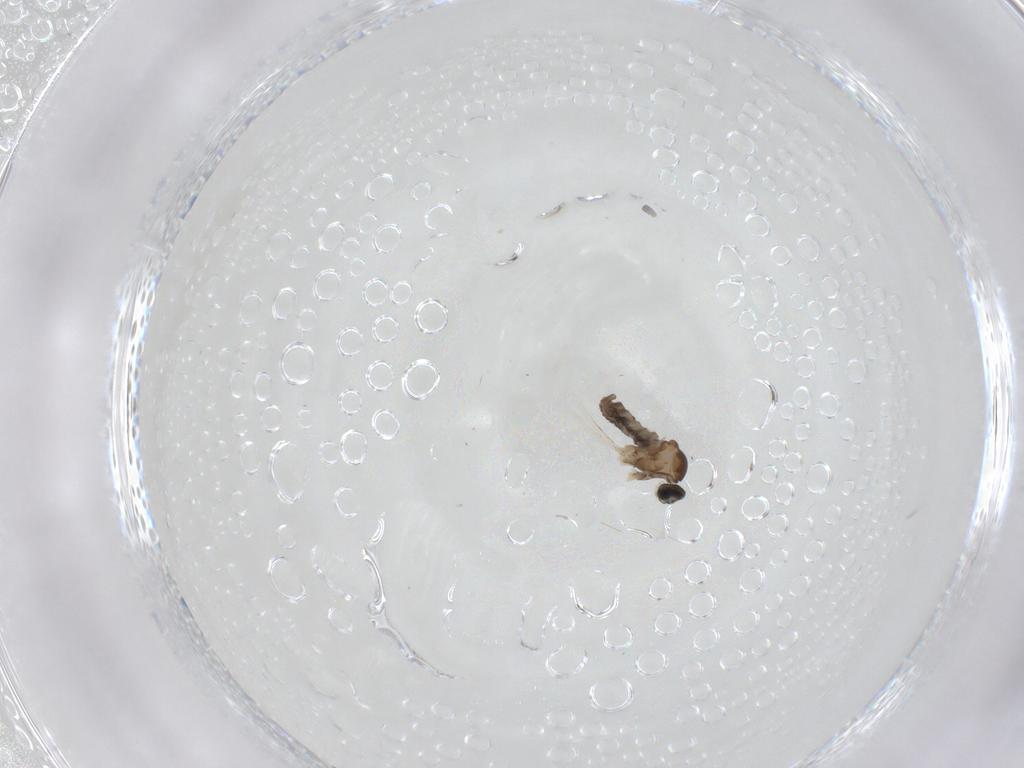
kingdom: Animalia
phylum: Arthropoda
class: Insecta
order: Diptera
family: Cecidomyiidae
